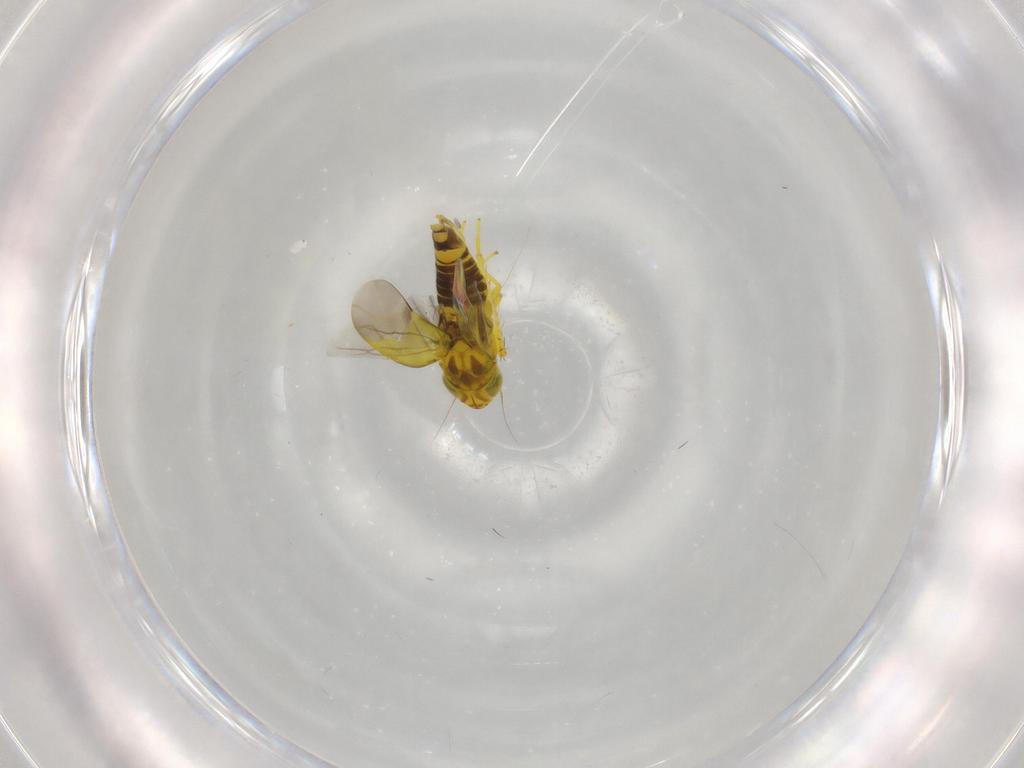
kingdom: Animalia
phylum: Arthropoda
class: Insecta
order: Hemiptera
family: Cicadellidae
